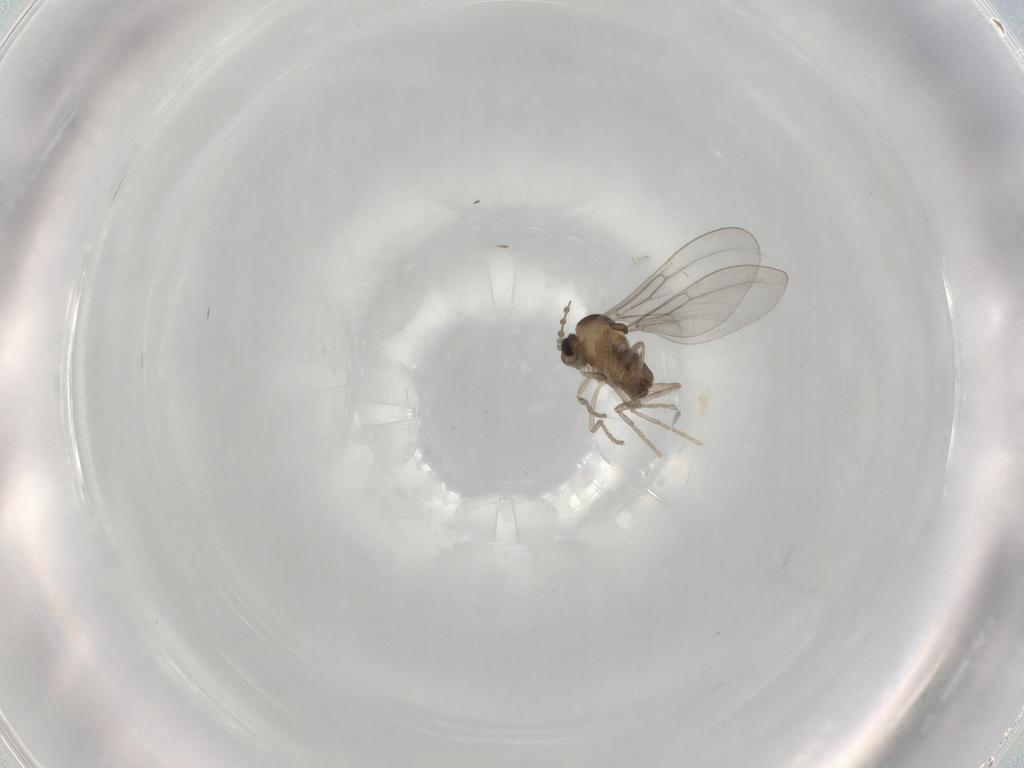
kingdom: Animalia
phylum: Arthropoda
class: Insecta
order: Diptera
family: Cecidomyiidae
